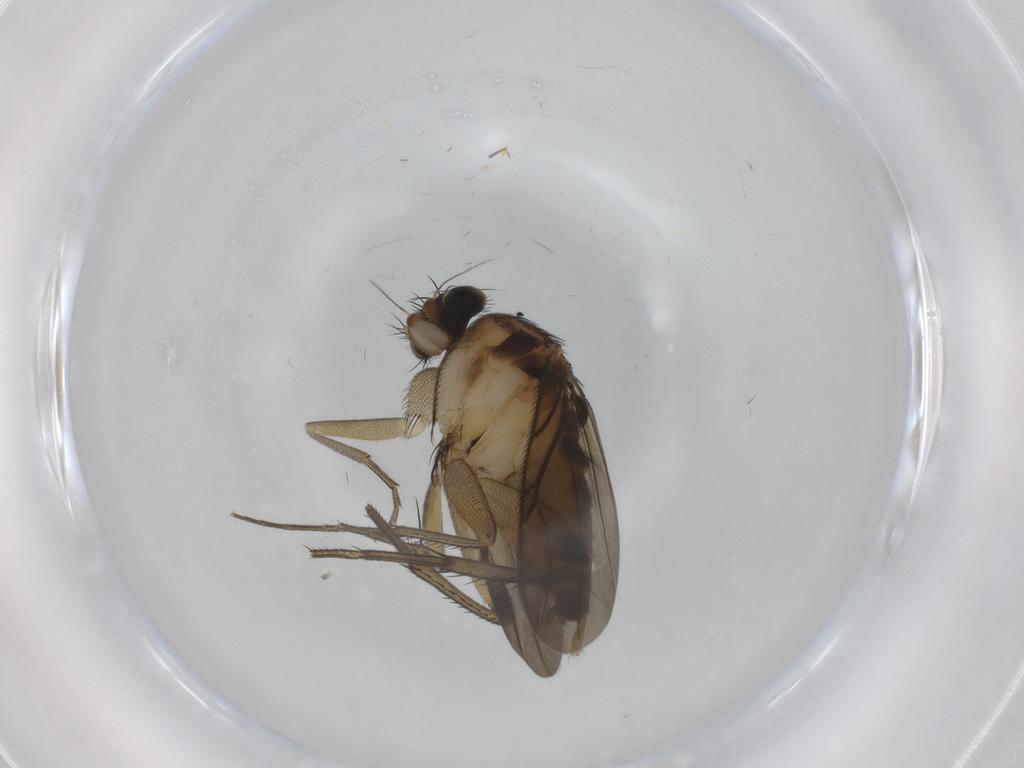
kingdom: Animalia
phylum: Arthropoda
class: Insecta
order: Diptera
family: Phoridae
